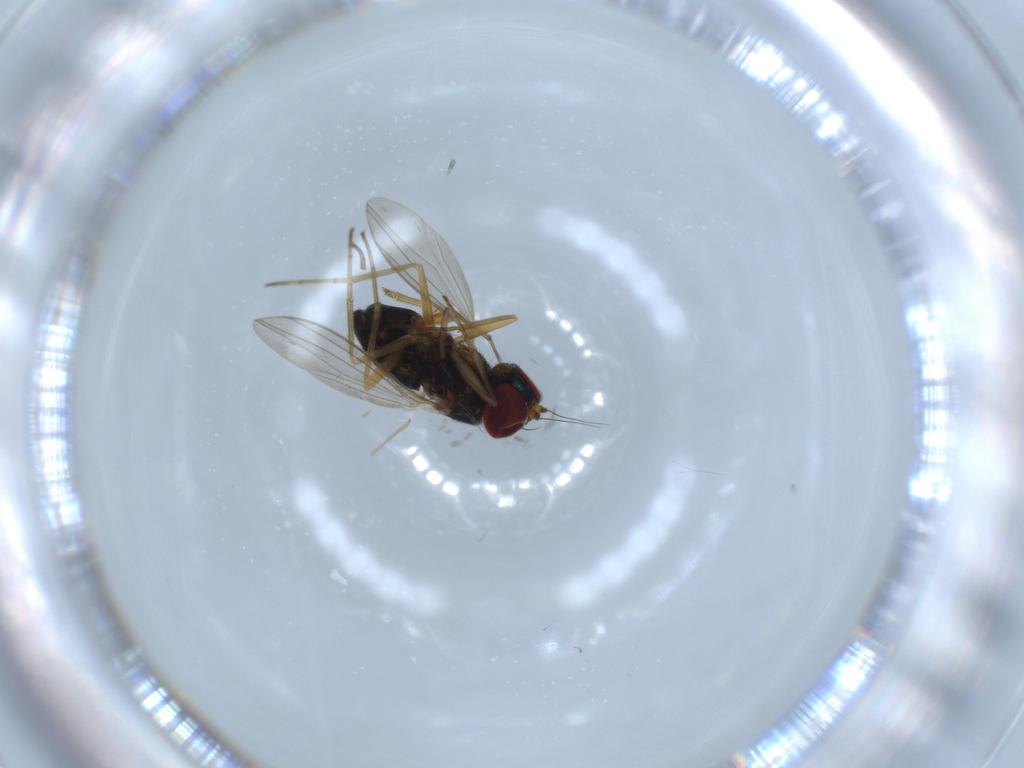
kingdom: Animalia
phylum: Arthropoda
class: Insecta
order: Diptera
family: Dolichopodidae
